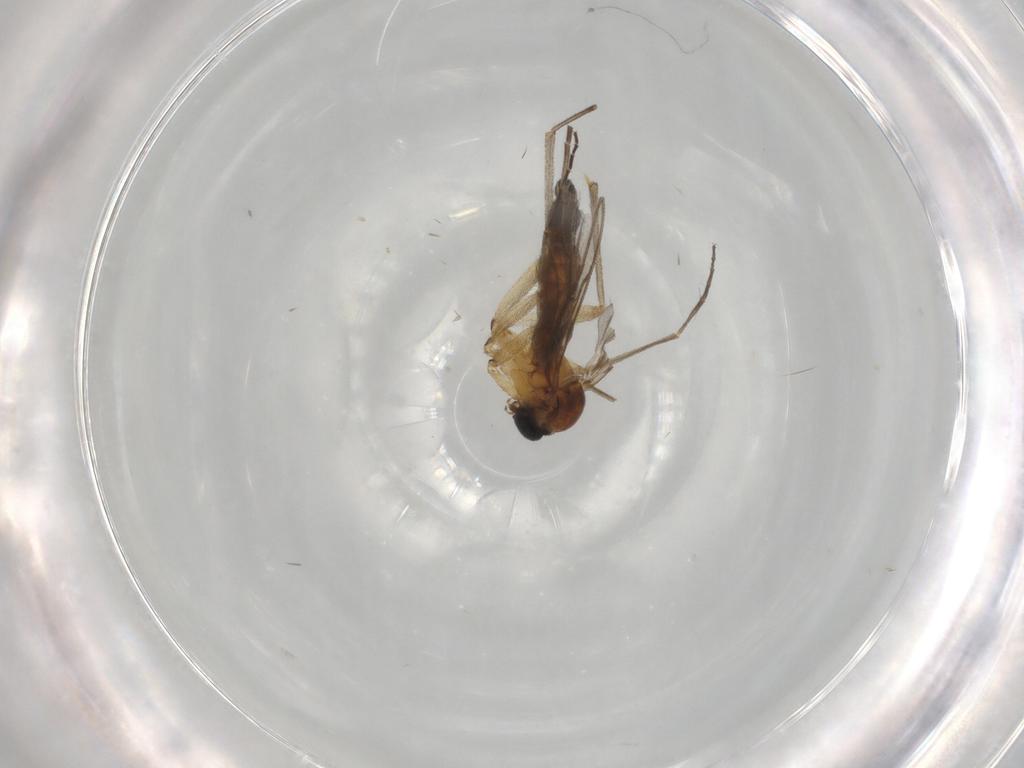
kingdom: Animalia
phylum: Arthropoda
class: Insecta
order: Diptera
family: Sciaridae
